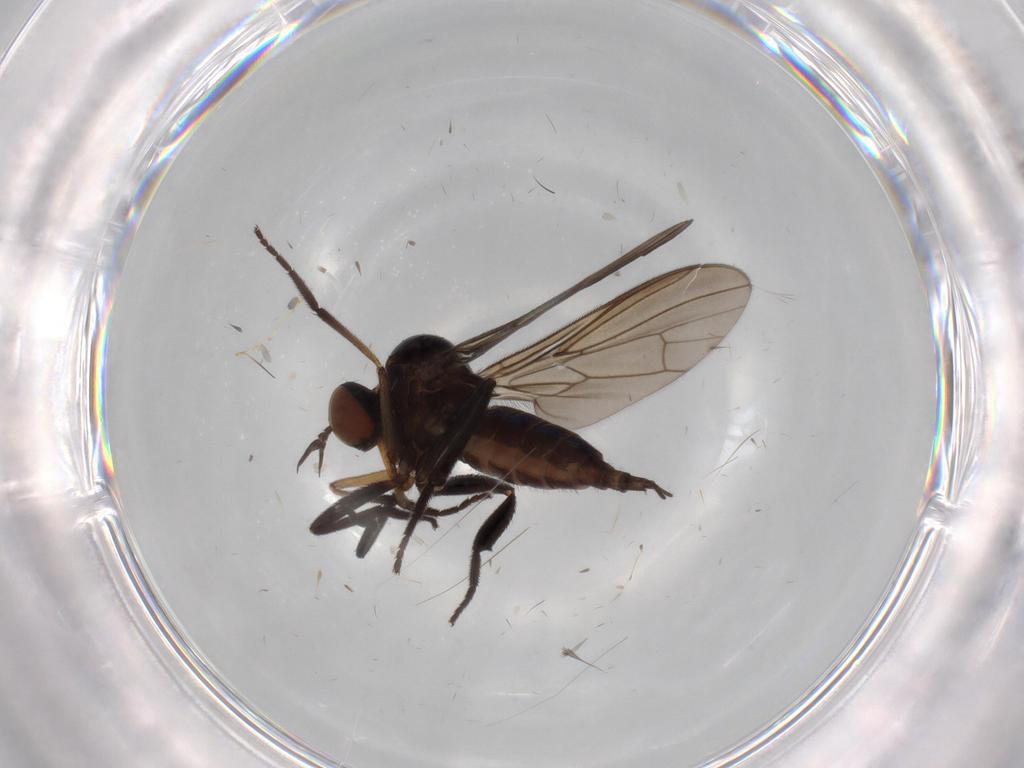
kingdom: Animalia
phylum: Arthropoda
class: Insecta
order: Diptera
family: Empididae
